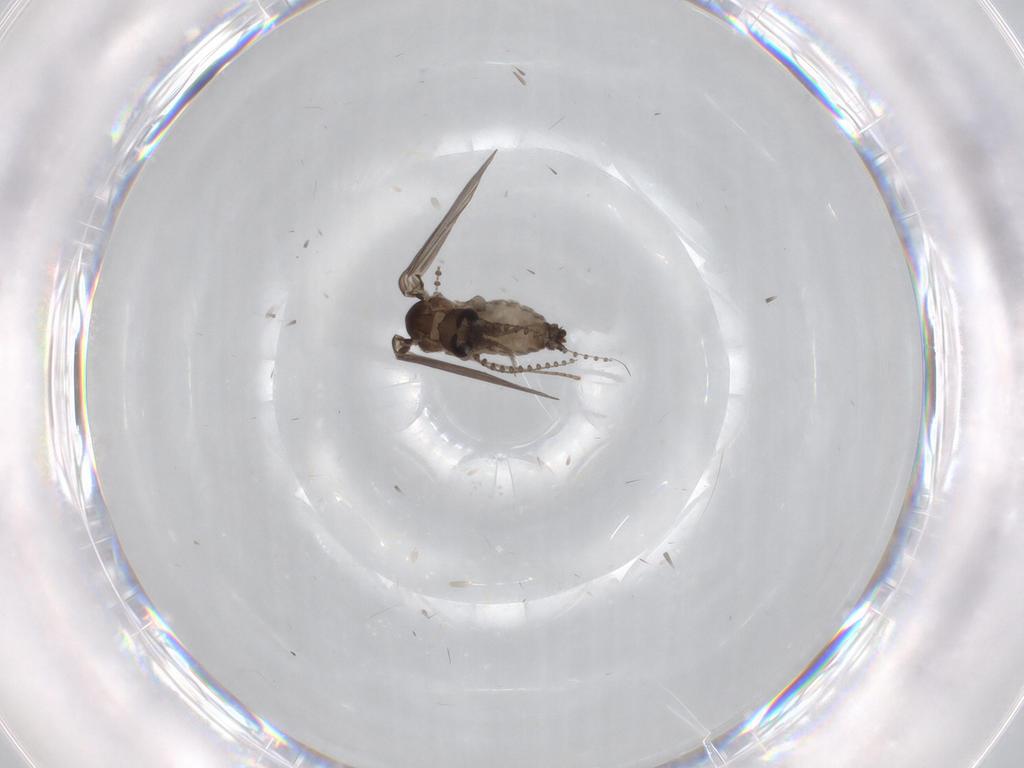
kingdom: Animalia
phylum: Arthropoda
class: Insecta
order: Diptera
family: Psychodidae
